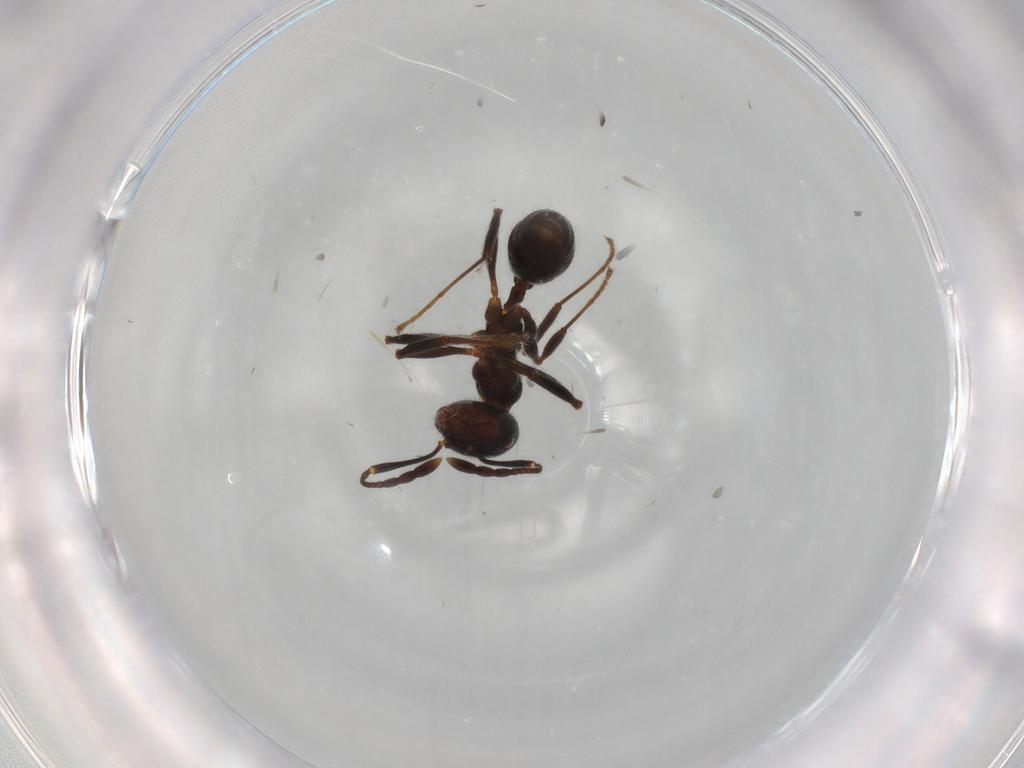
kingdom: Animalia
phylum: Arthropoda
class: Insecta
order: Hymenoptera
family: Formicidae
